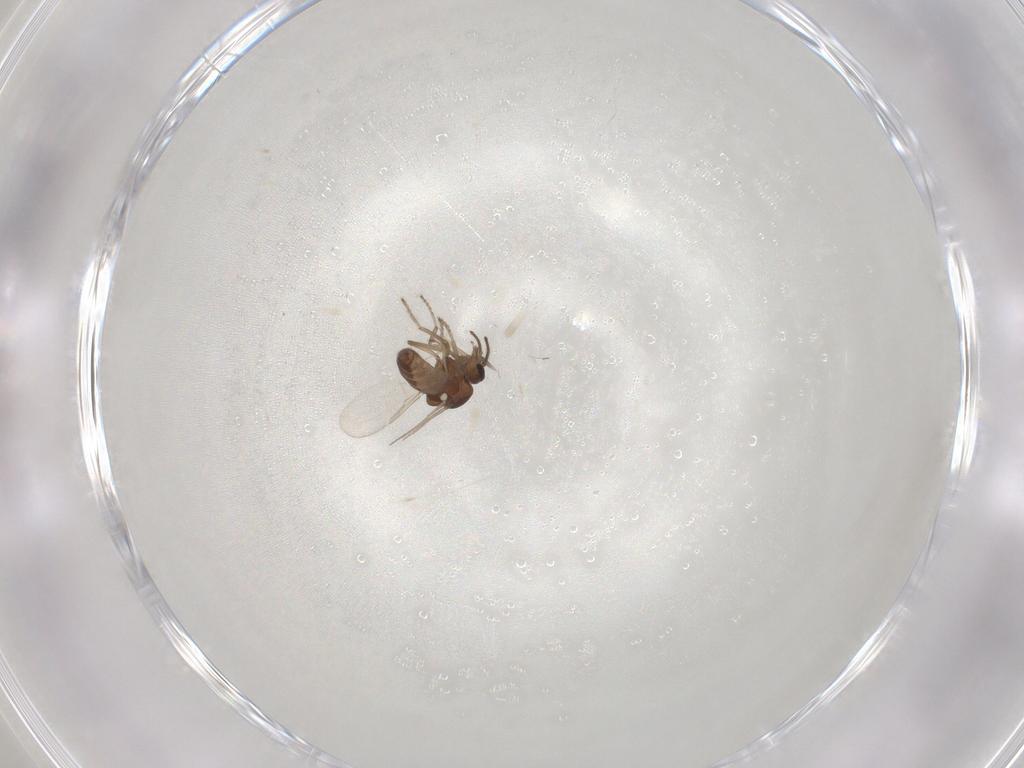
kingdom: Animalia
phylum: Arthropoda
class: Insecta
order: Diptera
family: Ceratopogonidae
